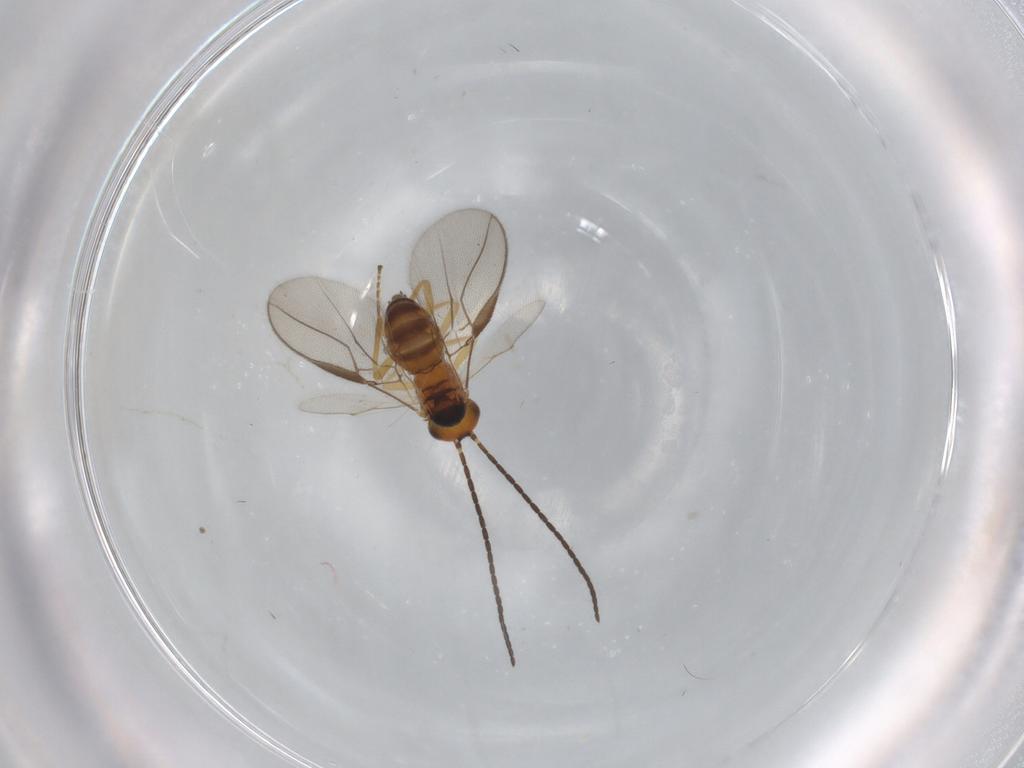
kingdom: Animalia
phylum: Arthropoda
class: Insecta
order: Hymenoptera
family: Braconidae
